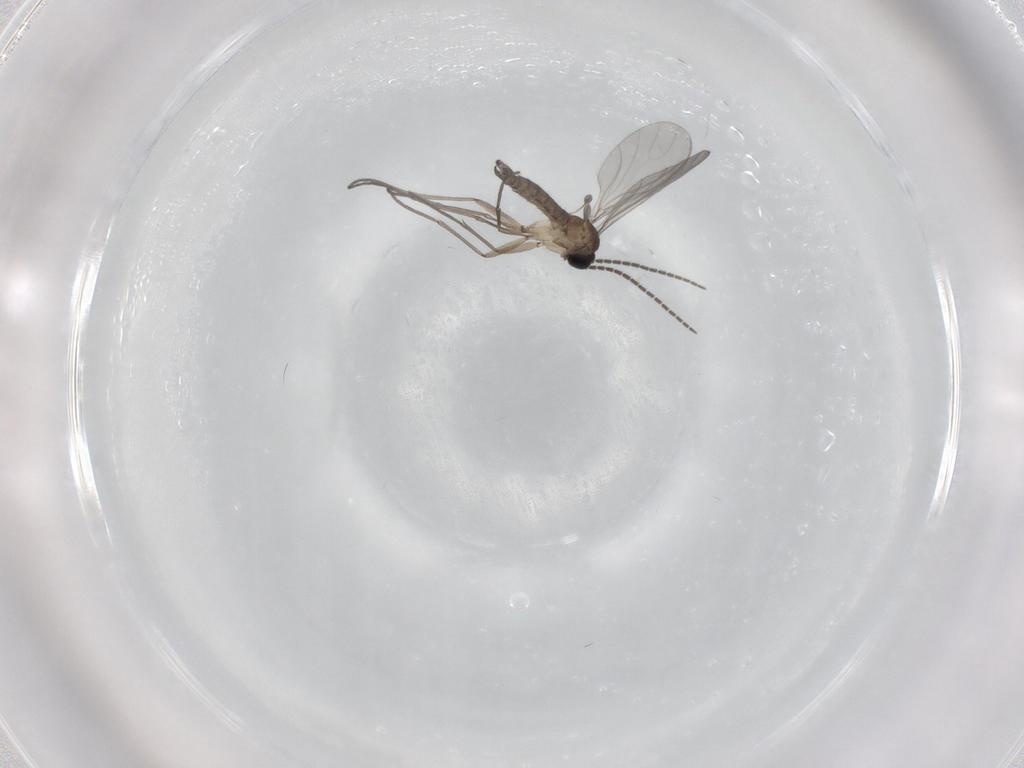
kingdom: Animalia
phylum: Arthropoda
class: Insecta
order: Diptera
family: Sciaridae
